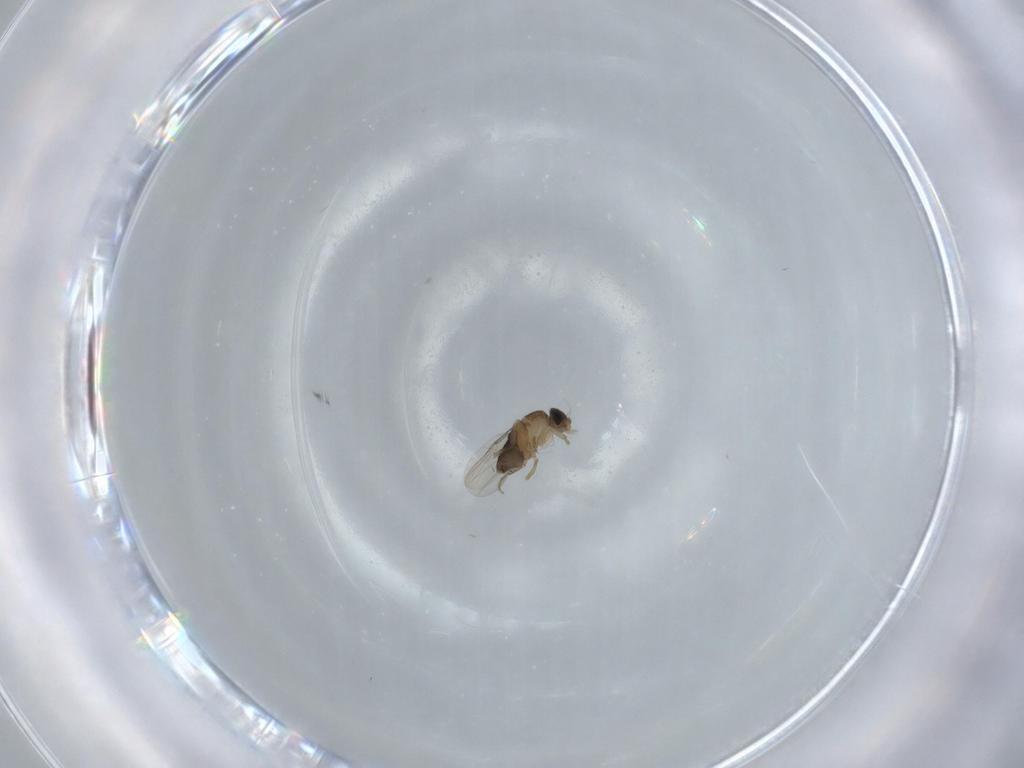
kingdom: Animalia
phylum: Arthropoda
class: Insecta
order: Diptera
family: Phoridae
